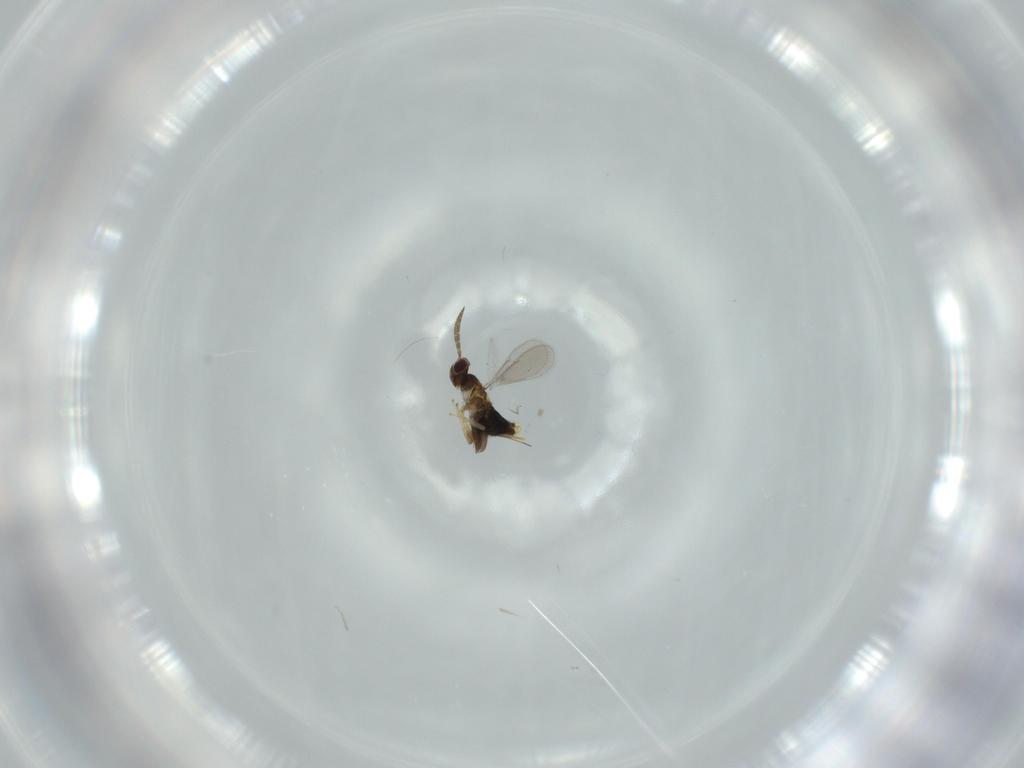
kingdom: Animalia
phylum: Arthropoda
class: Insecta
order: Hymenoptera
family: Aphelinidae
